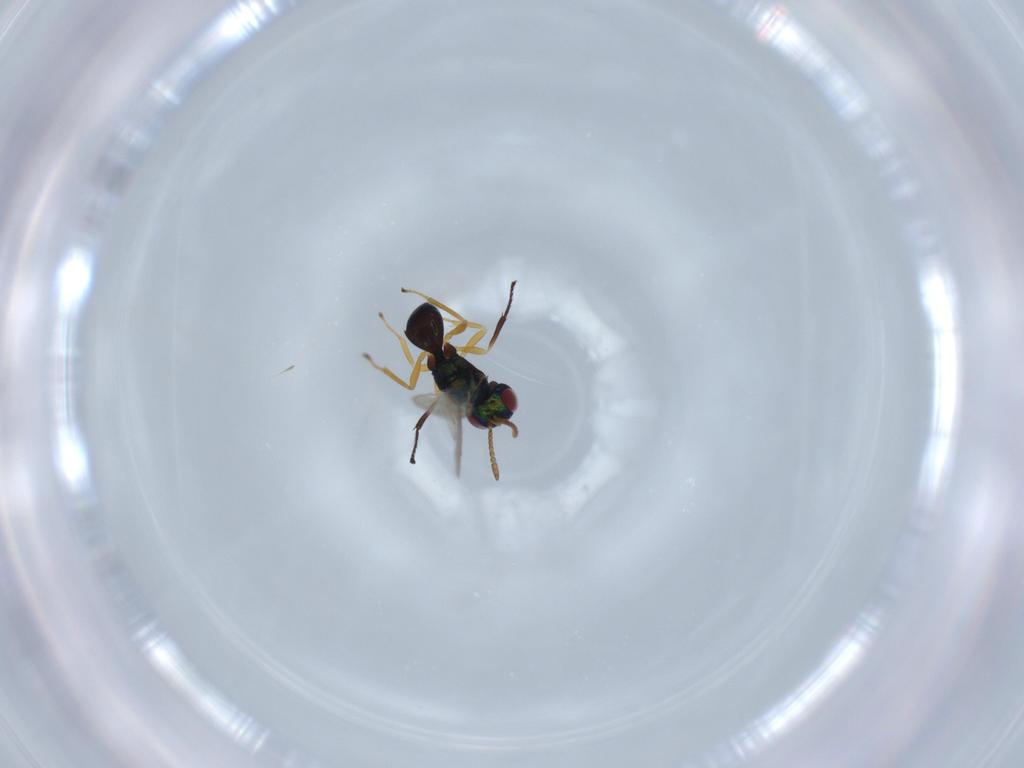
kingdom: Animalia
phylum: Arthropoda
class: Insecta
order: Hymenoptera
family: Pteromalidae
